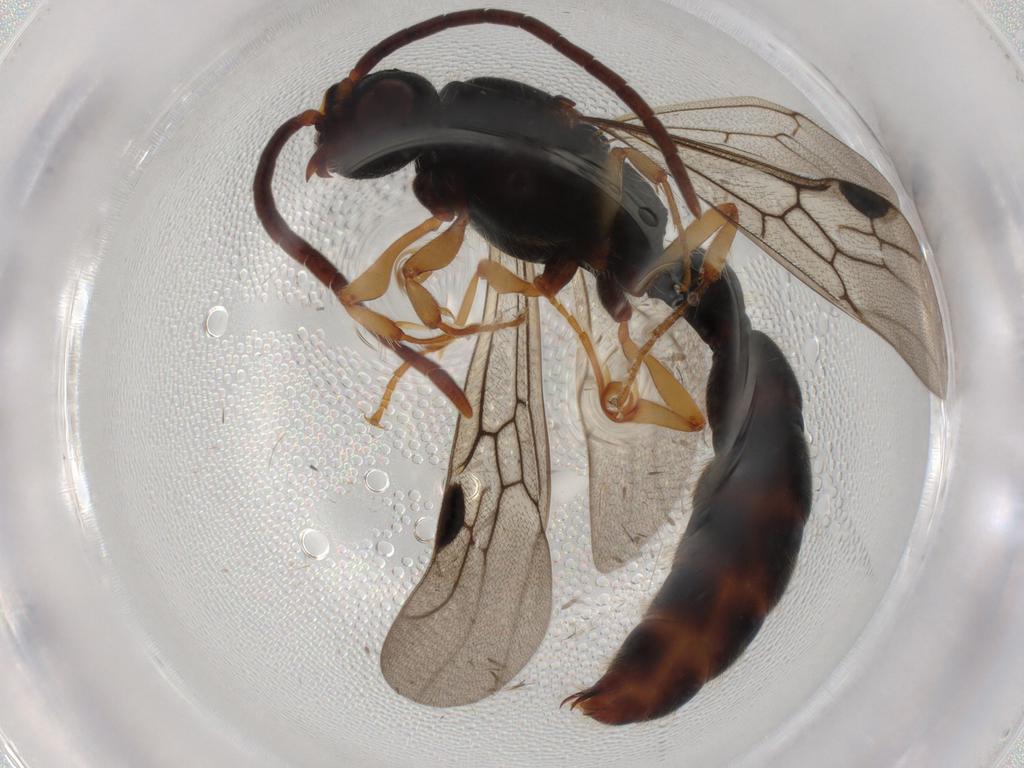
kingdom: Animalia
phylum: Arthropoda
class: Insecta
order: Hymenoptera
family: Formicidae
